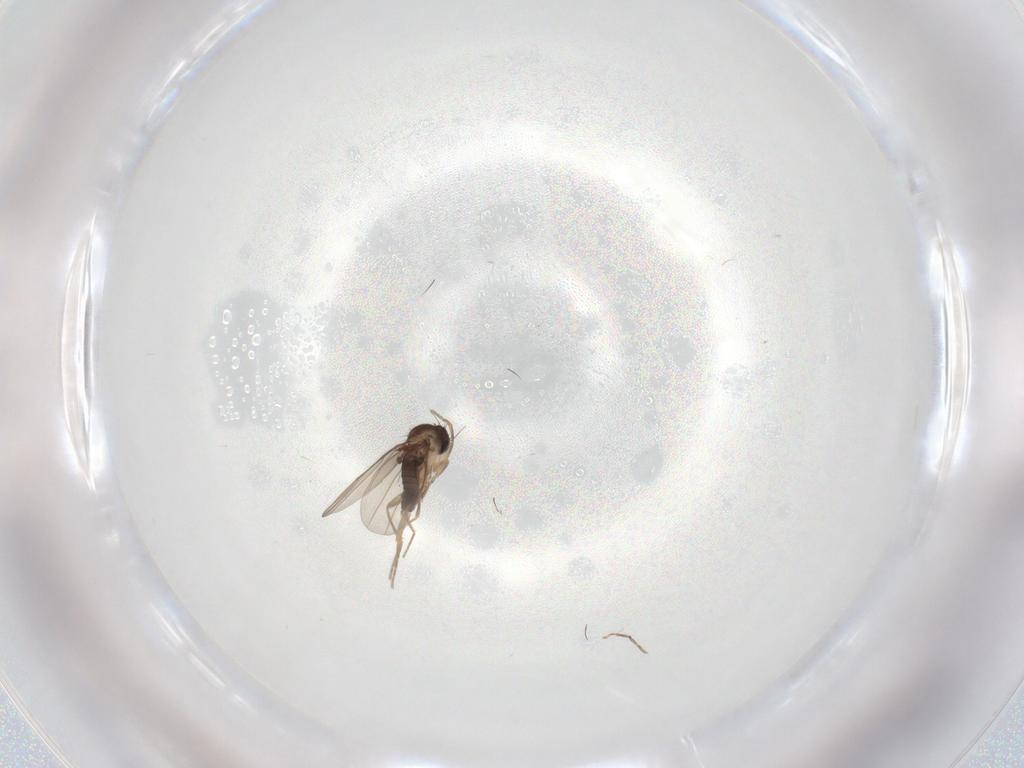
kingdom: Animalia
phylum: Arthropoda
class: Insecta
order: Diptera
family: Phoridae
